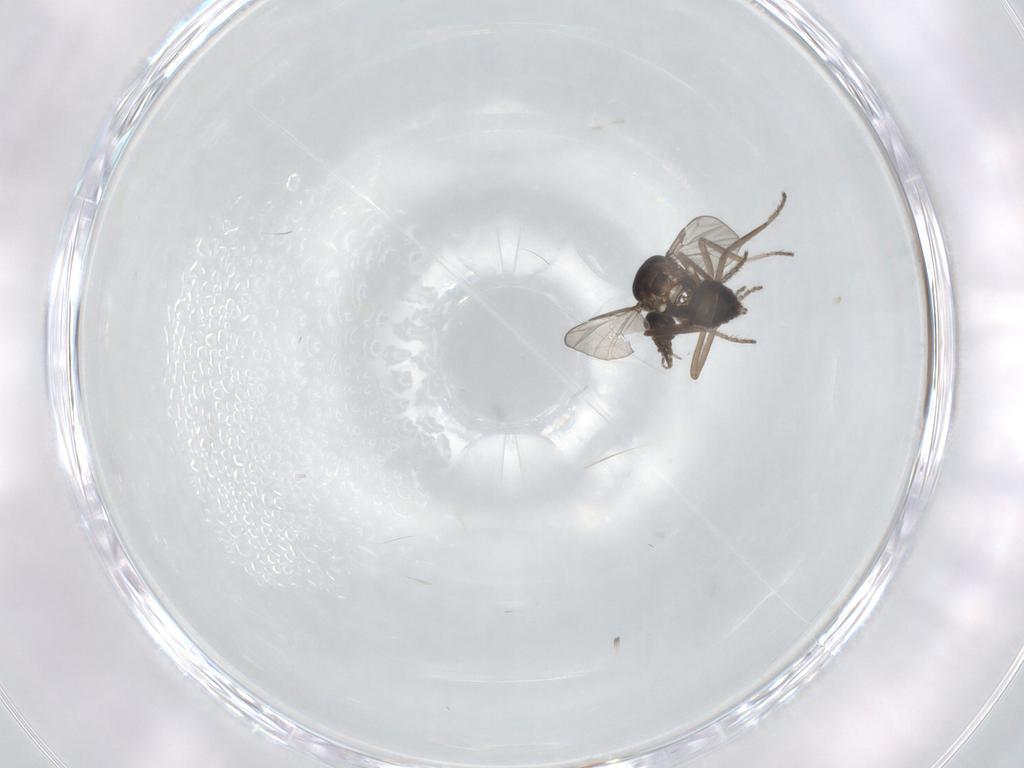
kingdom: Animalia
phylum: Arthropoda
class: Insecta
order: Diptera
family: Ceratopogonidae
